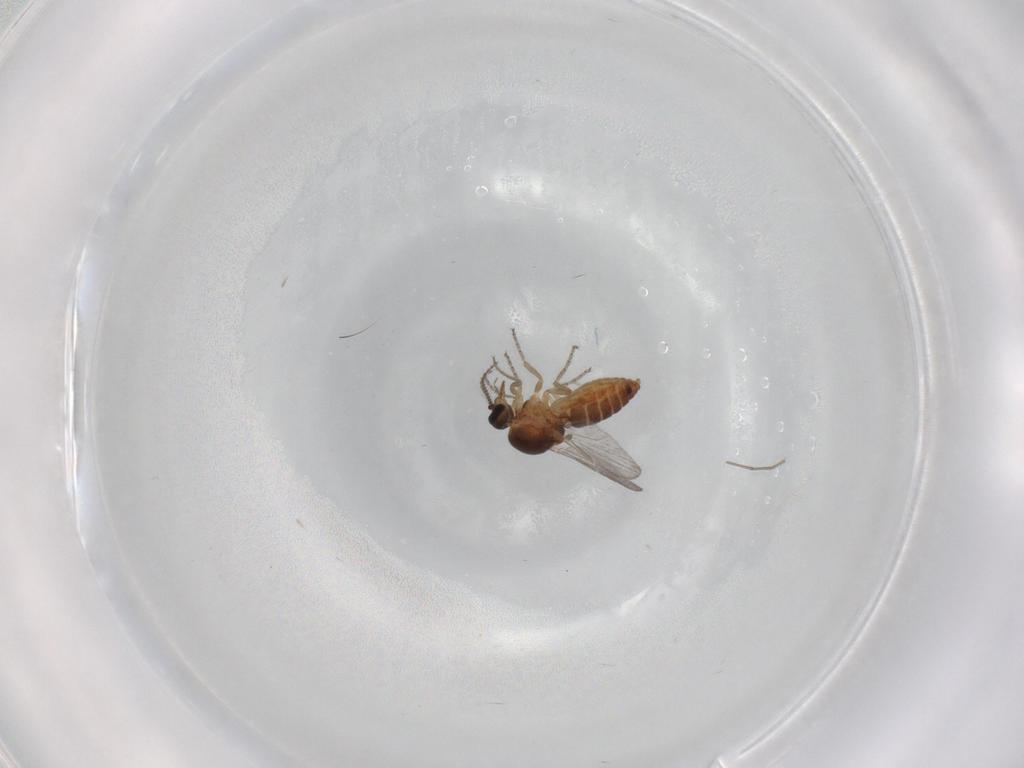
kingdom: Animalia
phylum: Arthropoda
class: Insecta
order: Diptera
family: Cecidomyiidae
